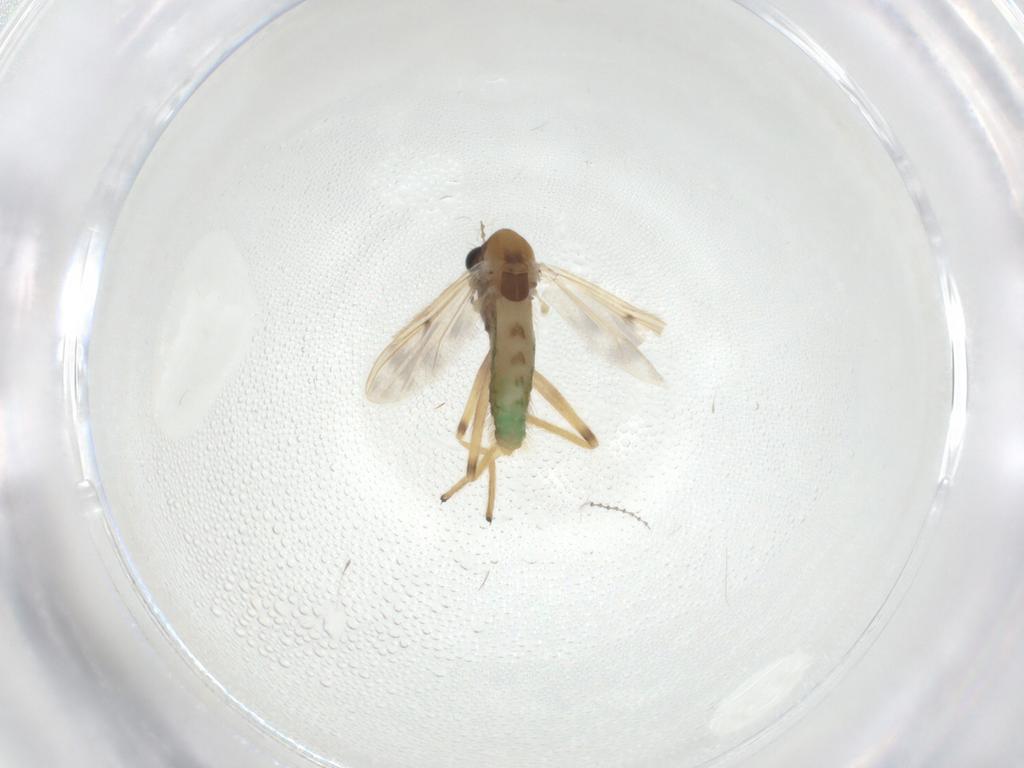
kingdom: Animalia
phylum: Arthropoda
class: Insecta
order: Diptera
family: Chironomidae
